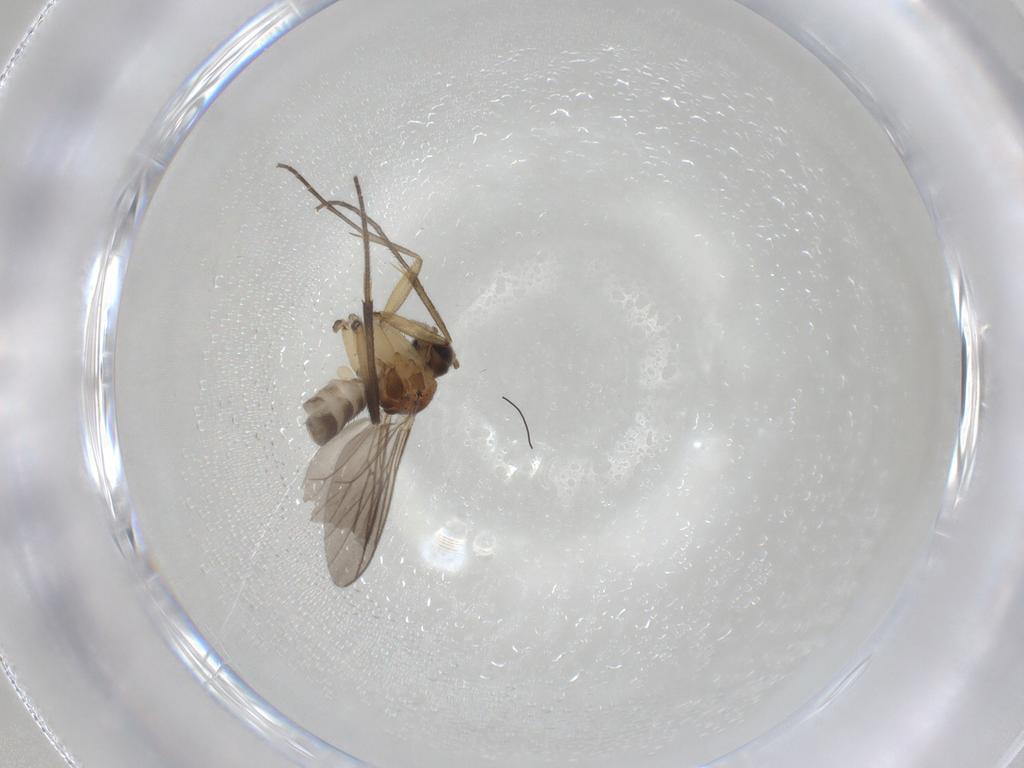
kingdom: Animalia
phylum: Arthropoda
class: Insecta
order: Diptera
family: Mycetophilidae
